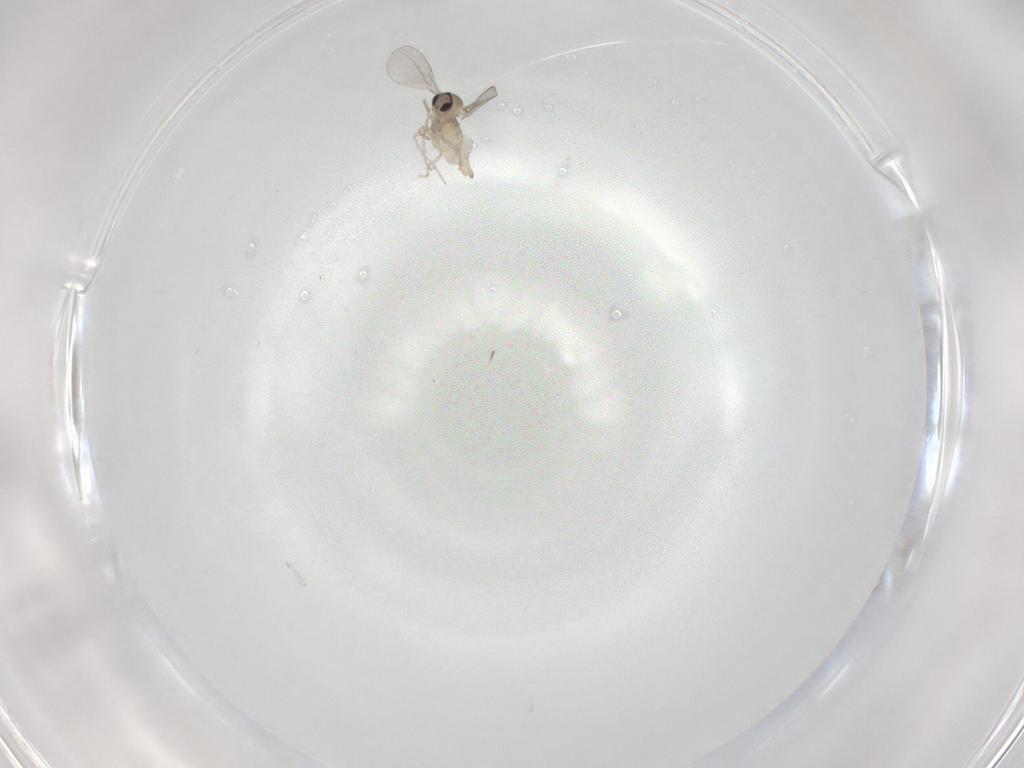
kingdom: Animalia
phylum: Arthropoda
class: Insecta
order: Diptera
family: Cecidomyiidae
